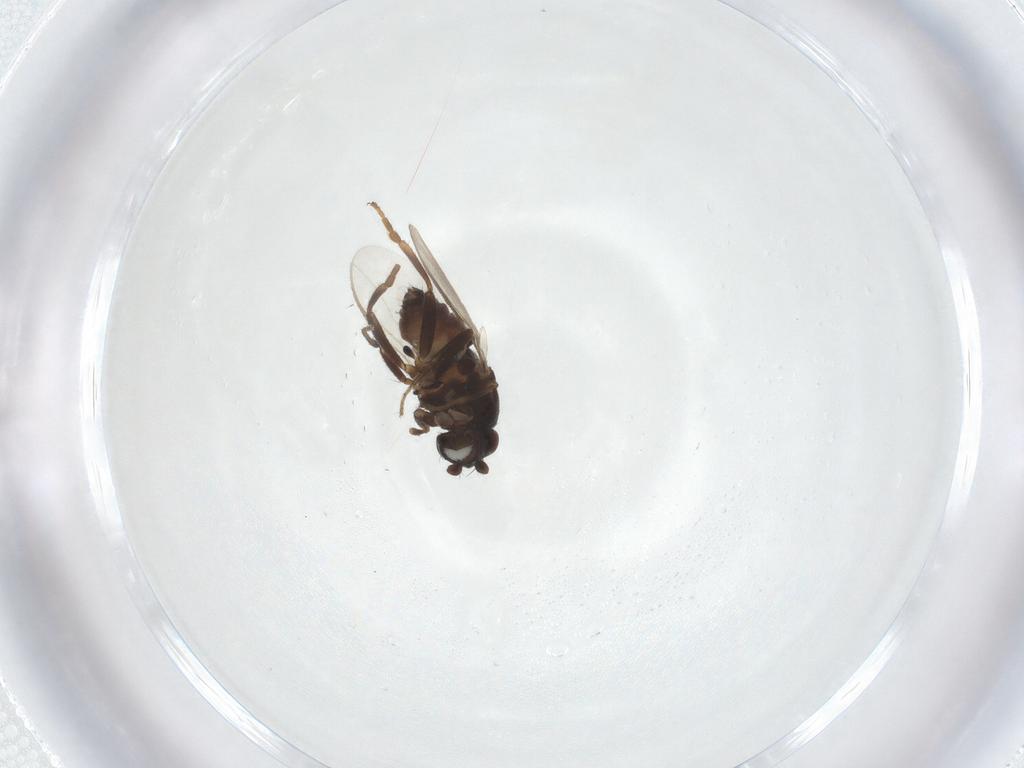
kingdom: Animalia
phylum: Arthropoda
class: Insecta
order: Diptera
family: Sphaeroceridae
